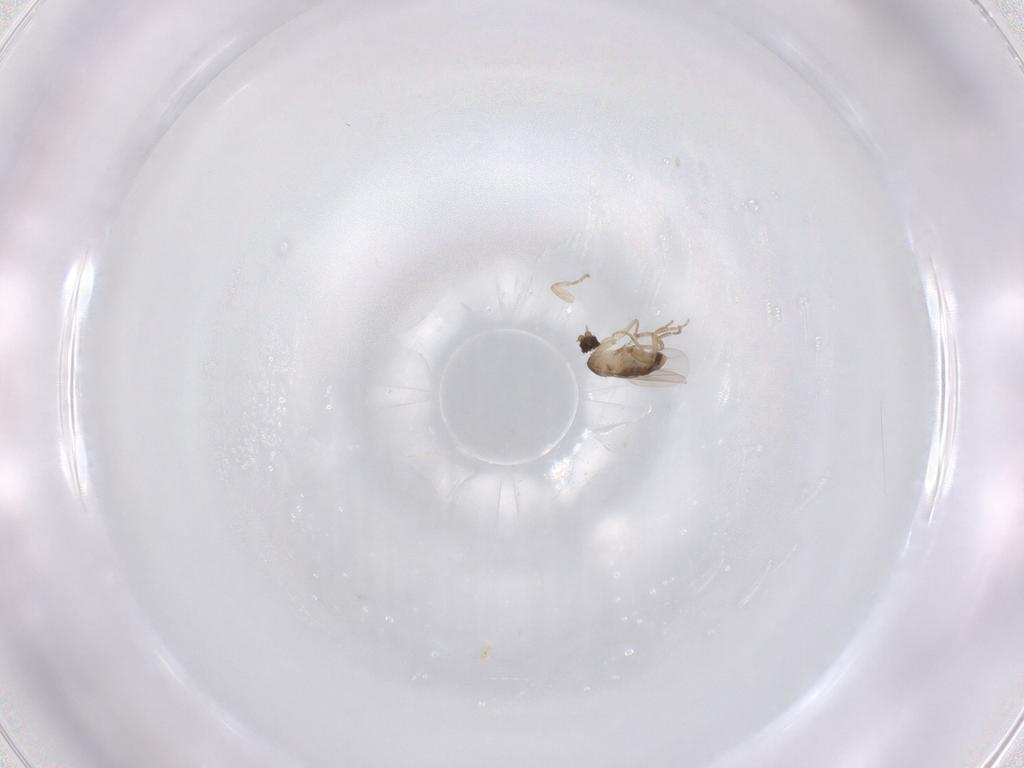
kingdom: Animalia
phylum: Arthropoda
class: Insecta
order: Diptera
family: Phoridae
